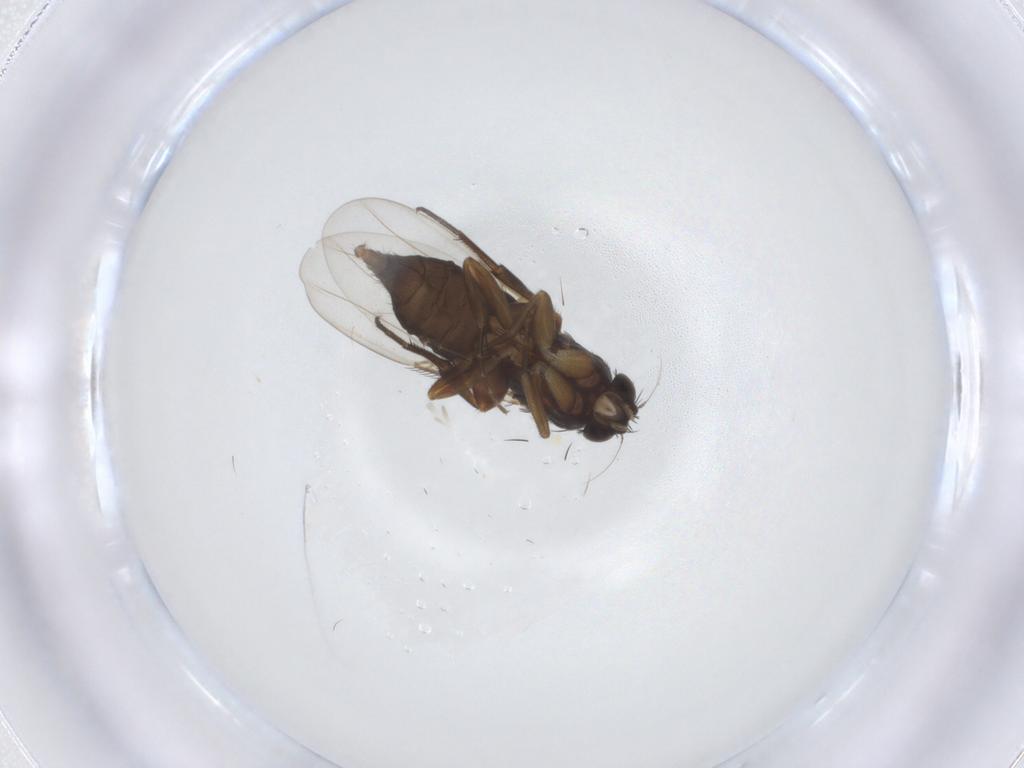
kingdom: Animalia
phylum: Arthropoda
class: Insecta
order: Diptera
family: Phoridae
